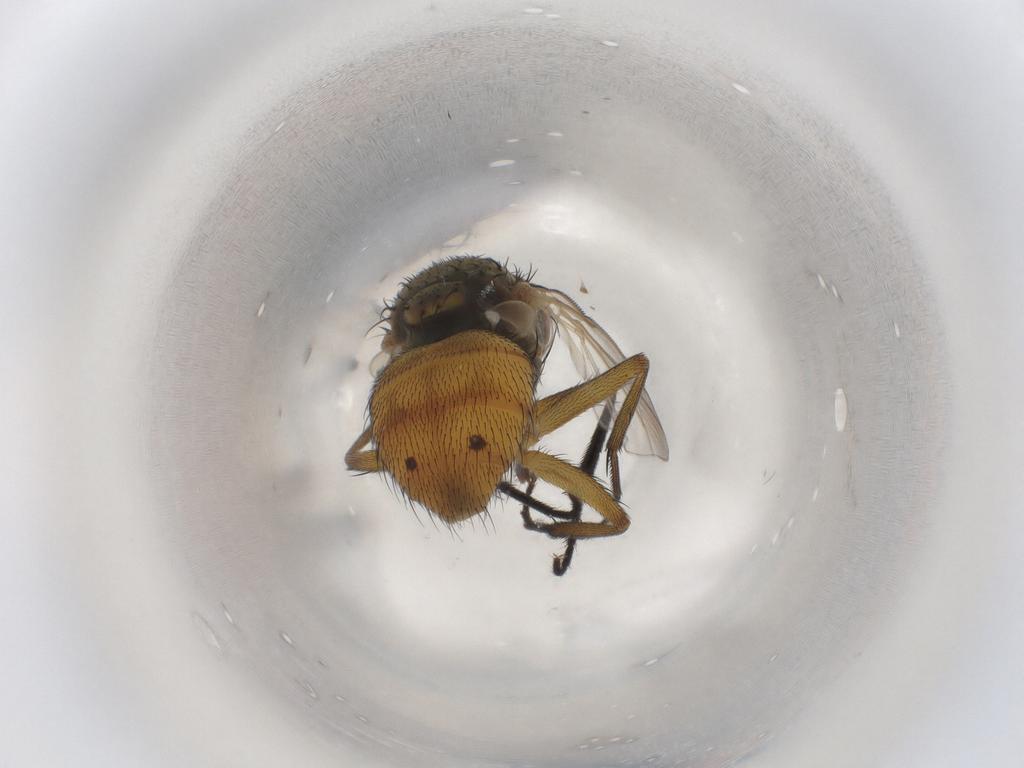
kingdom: Animalia
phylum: Arthropoda
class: Insecta
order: Diptera
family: Muscidae
